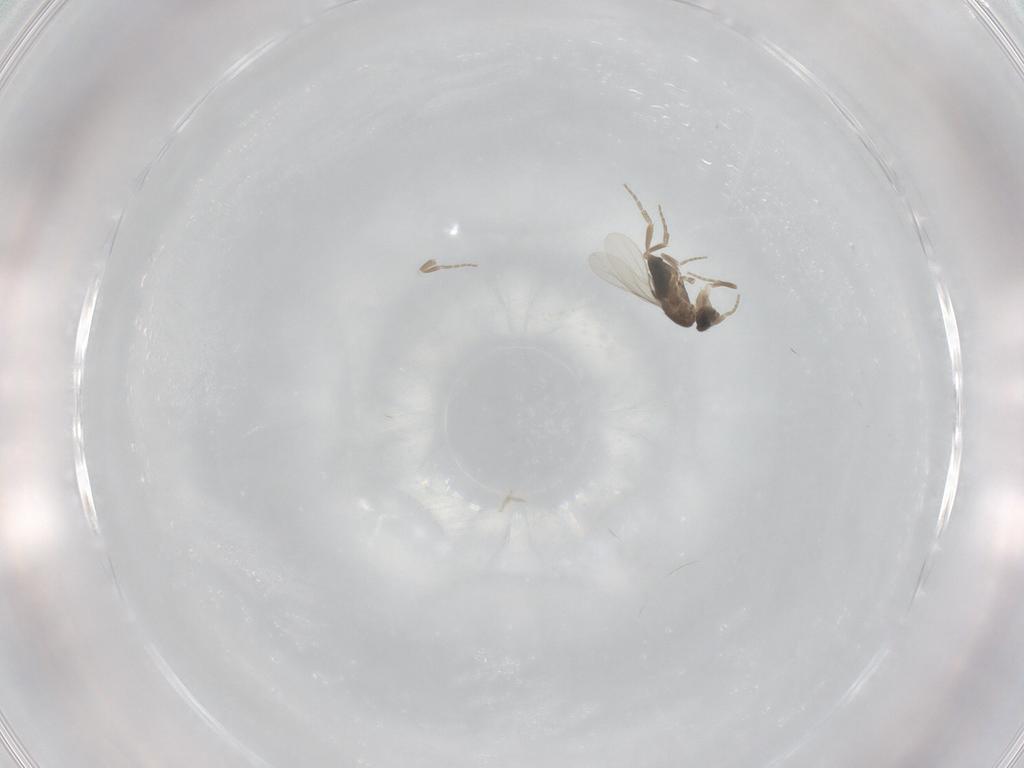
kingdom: Animalia
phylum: Arthropoda
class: Insecta
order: Diptera
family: Phoridae
